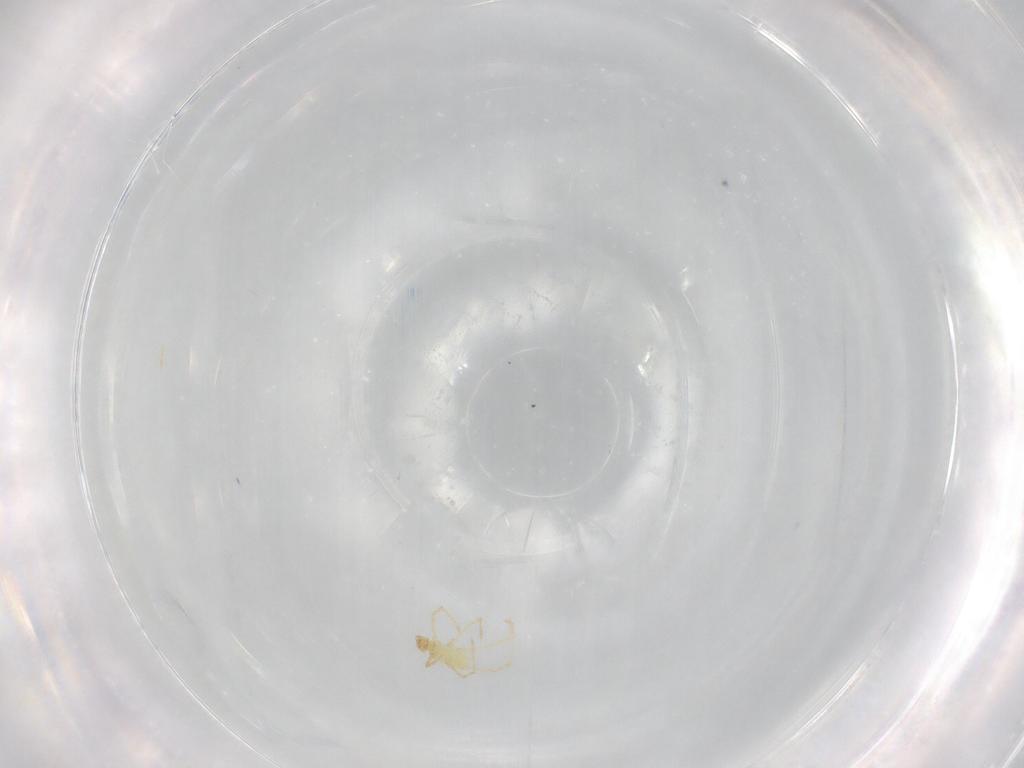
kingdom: Animalia
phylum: Arthropoda
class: Arachnida
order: Trombidiformes
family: Erythraeidae
